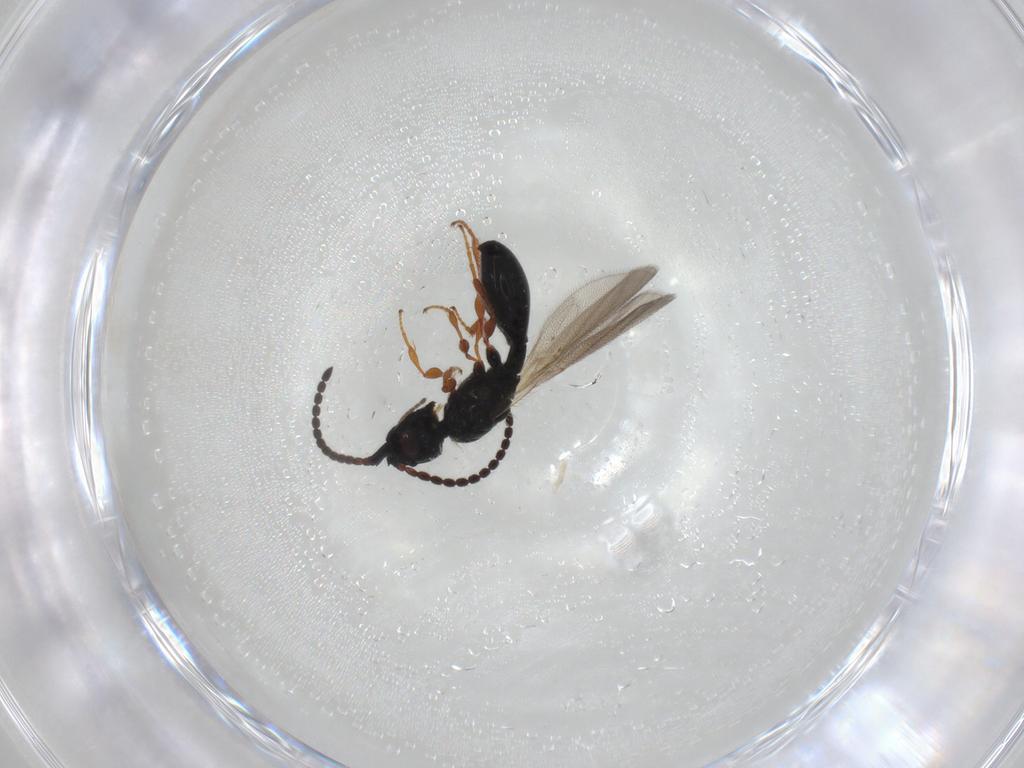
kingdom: Animalia
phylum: Arthropoda
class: Insecta
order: Hymenoptera
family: Diapriidae
